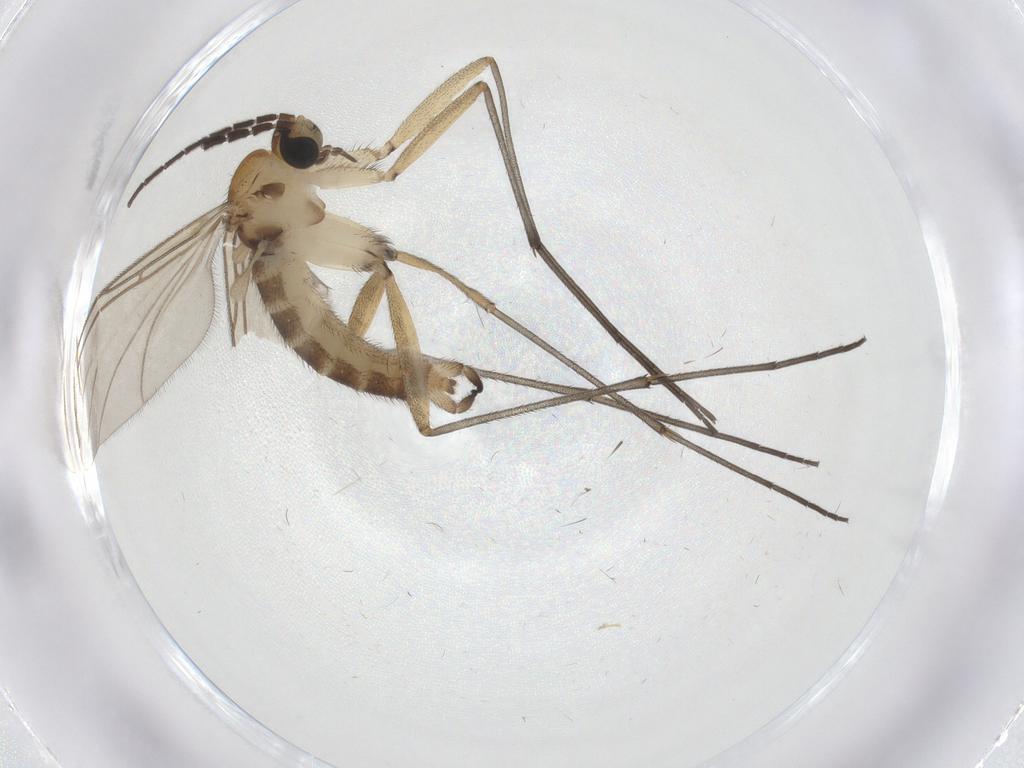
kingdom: Animalia
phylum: Arthropoda
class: Insecta
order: Diptera
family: Sciaridae
